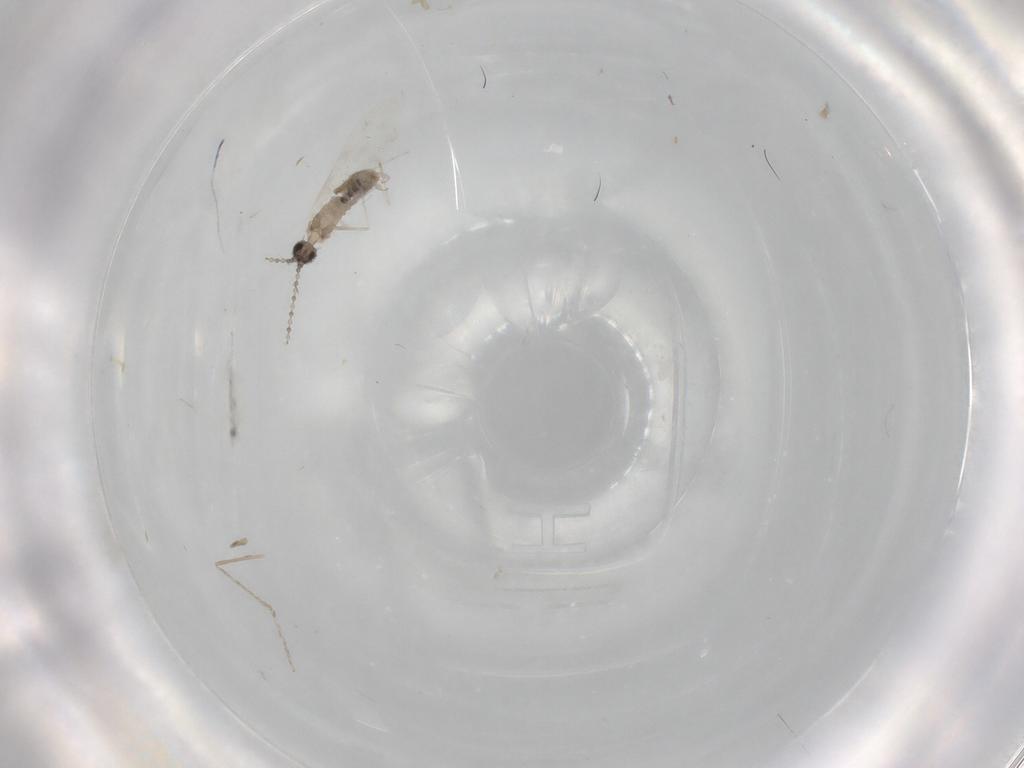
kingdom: Animalia
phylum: Arthropoda
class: Insecta
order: Diptera
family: Cecidomyiidae
